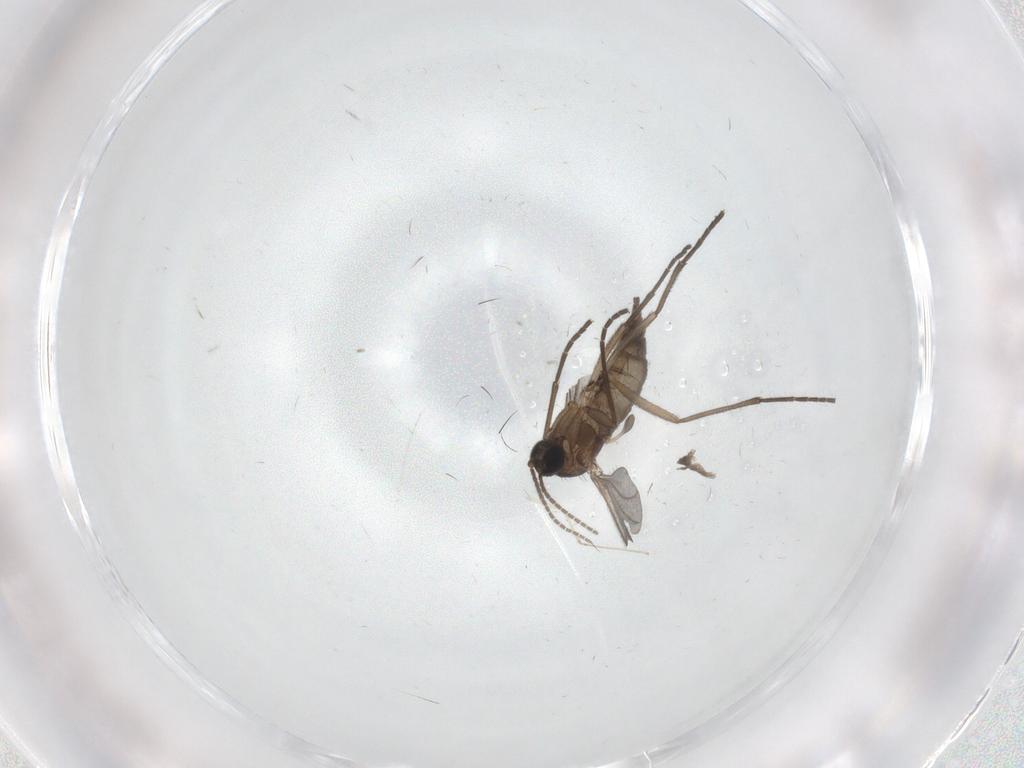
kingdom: Animalia
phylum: Arthropoda
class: Insecta
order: Diptera
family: Sciaridae
